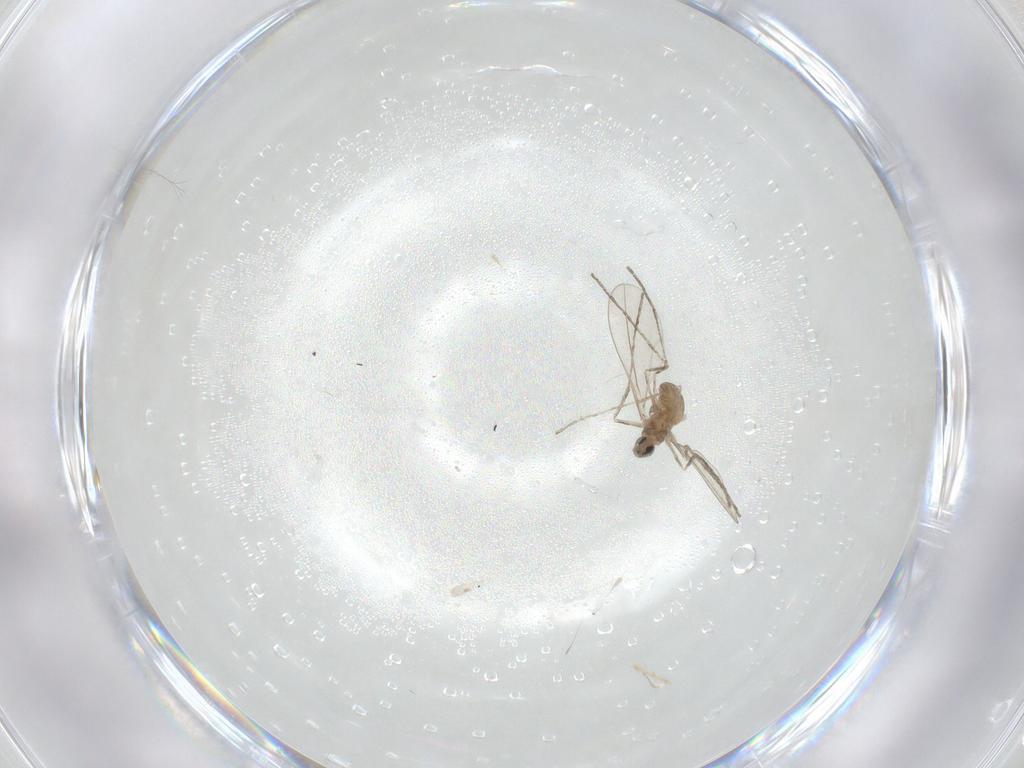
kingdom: Animalia
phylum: Arthropoda
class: Insecta
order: Diptera
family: Cecidomyiidae
